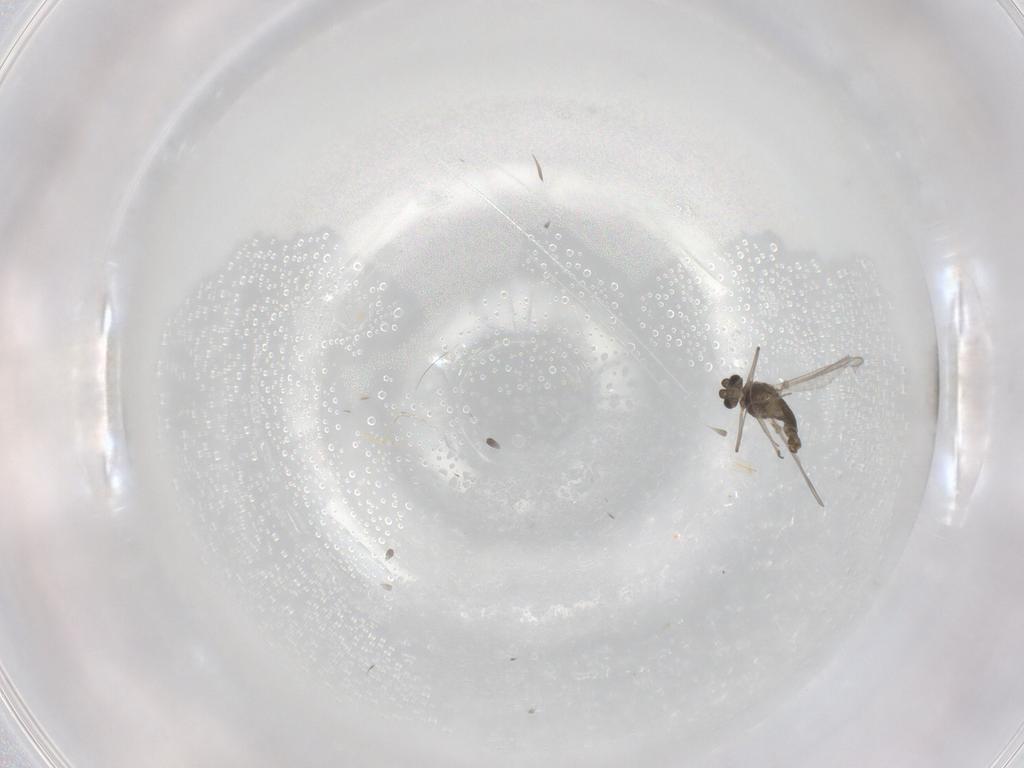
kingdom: Animalia
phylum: Arthropoda
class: Insecta
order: Diptera
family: Chironomidae
